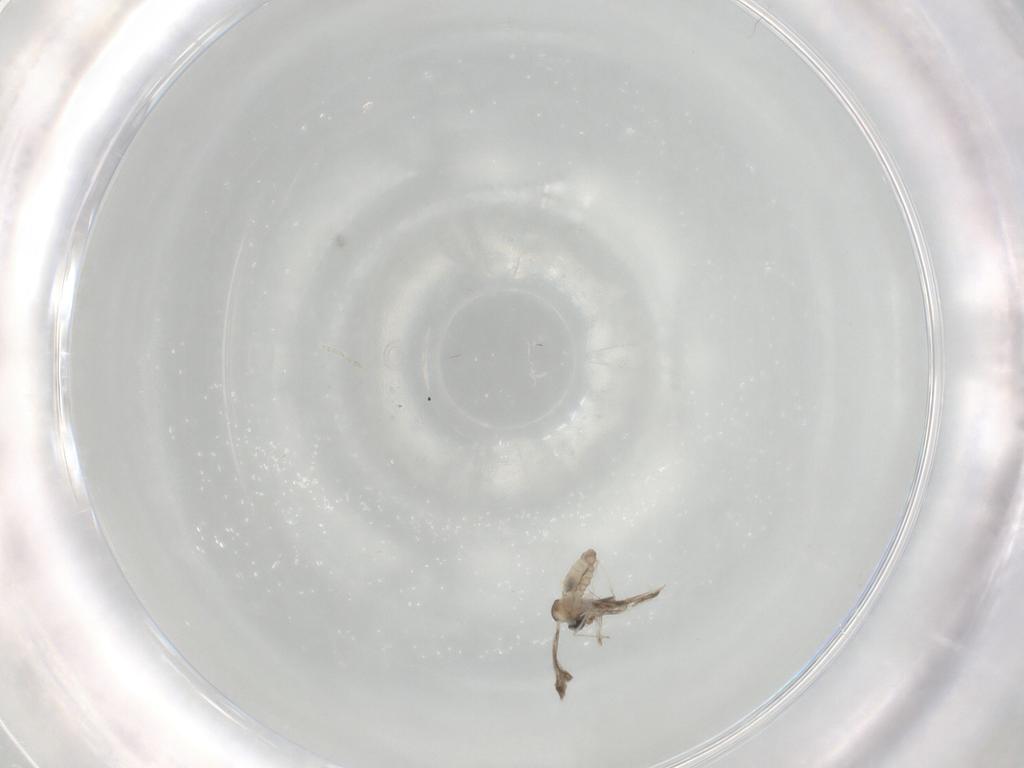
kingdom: Animalia
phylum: Arthropoda
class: Insecta
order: Diptera
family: Cecidomyiidae
